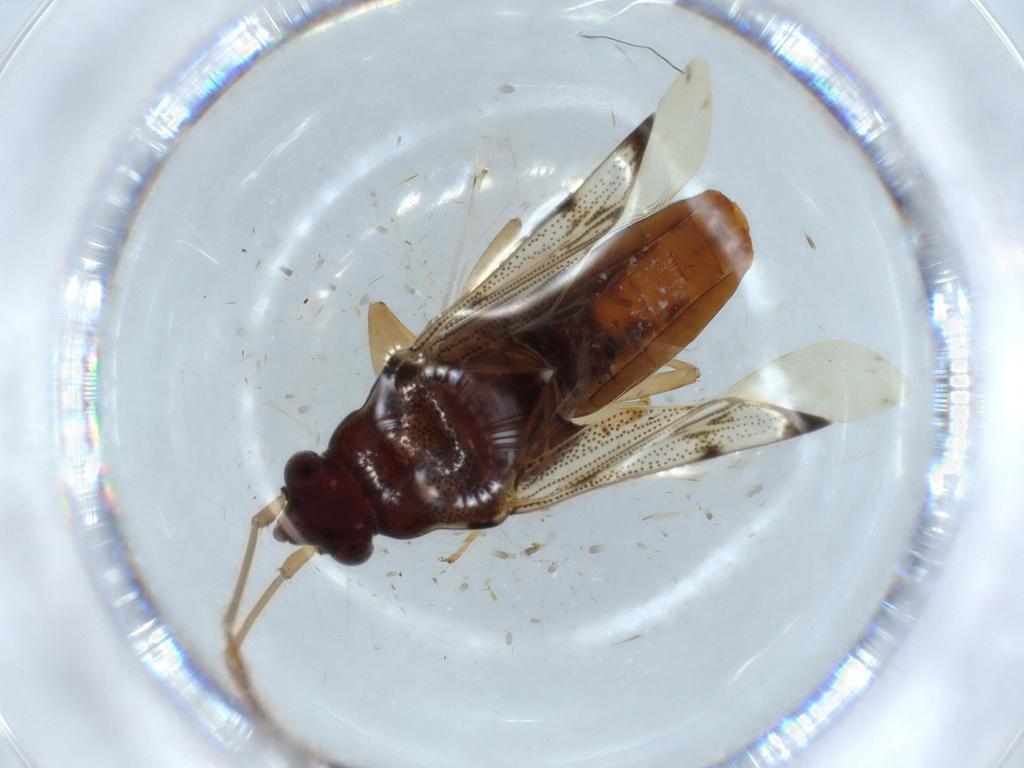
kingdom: Animalia
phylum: Arthropoda
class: Insecta
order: Hemiptera
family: Rhyparochromidae
